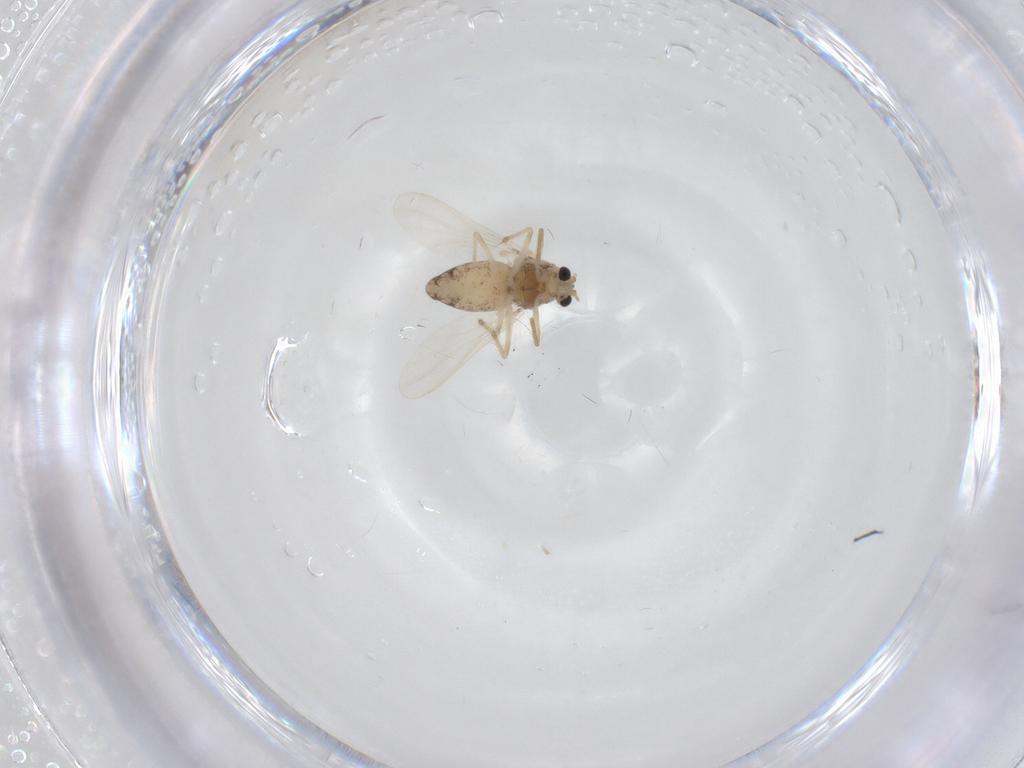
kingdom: Animalia
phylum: Arthropoda
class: Insecta
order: Diptera
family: Chironomidae
